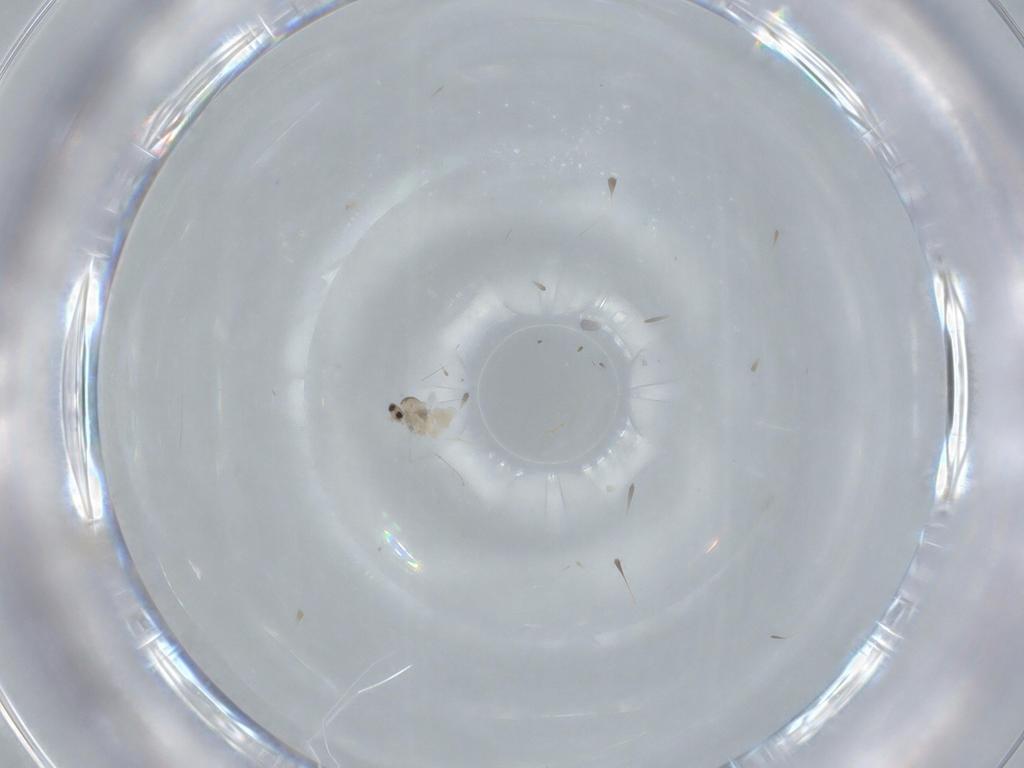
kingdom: Animalia
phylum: Arthropoda
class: Insecta
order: Diptera
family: Cecidomyiidae
